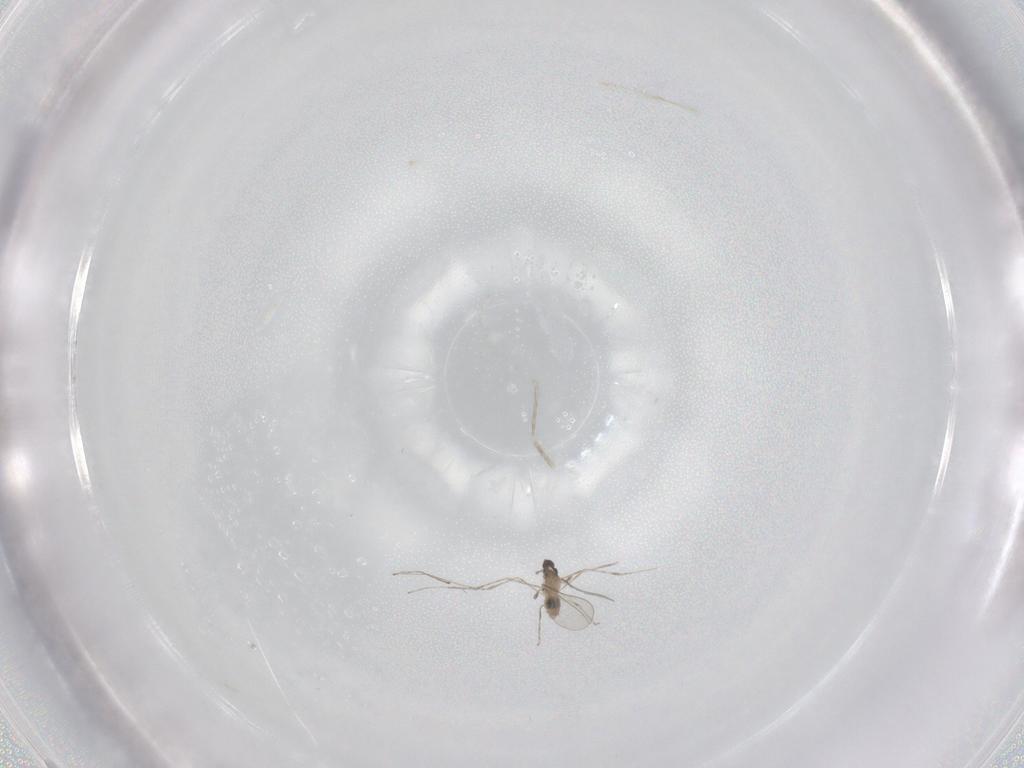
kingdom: Animalia
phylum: Arthropoda
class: Insecta
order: Diptera
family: Cecidomyiidae
